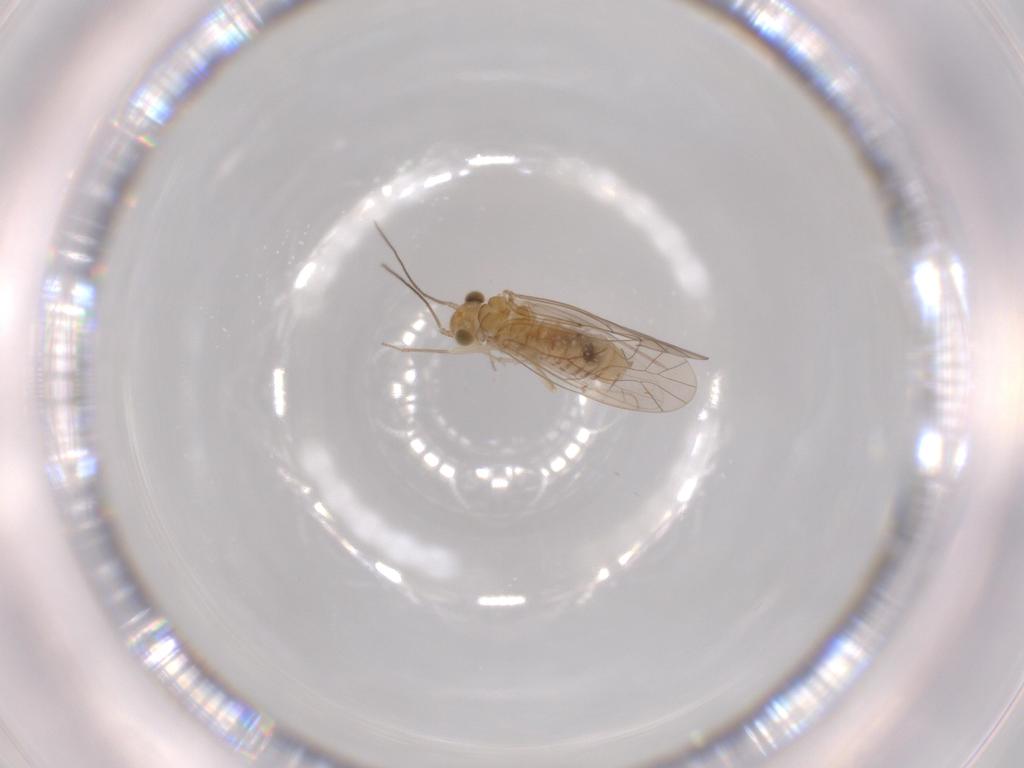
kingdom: Animalia
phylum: Arthropoda
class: Insecta
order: Psocodea
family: Lachesillidae
